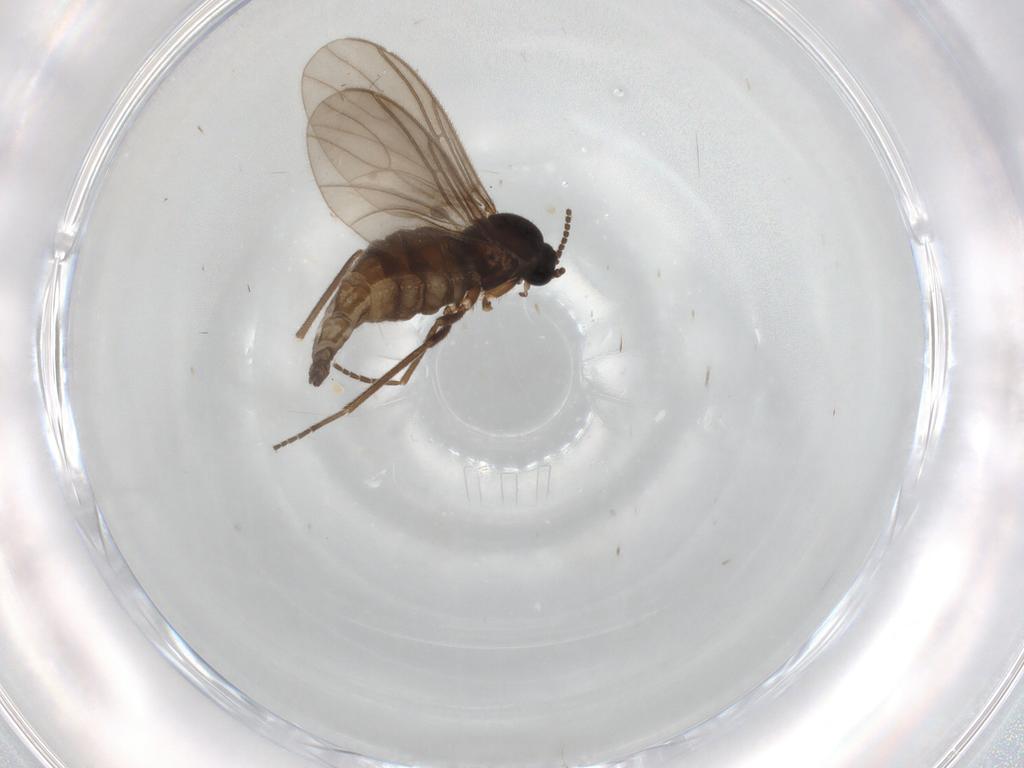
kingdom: Animalia
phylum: Arthropoda
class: Insecta
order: Diptera
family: Sciaridae
